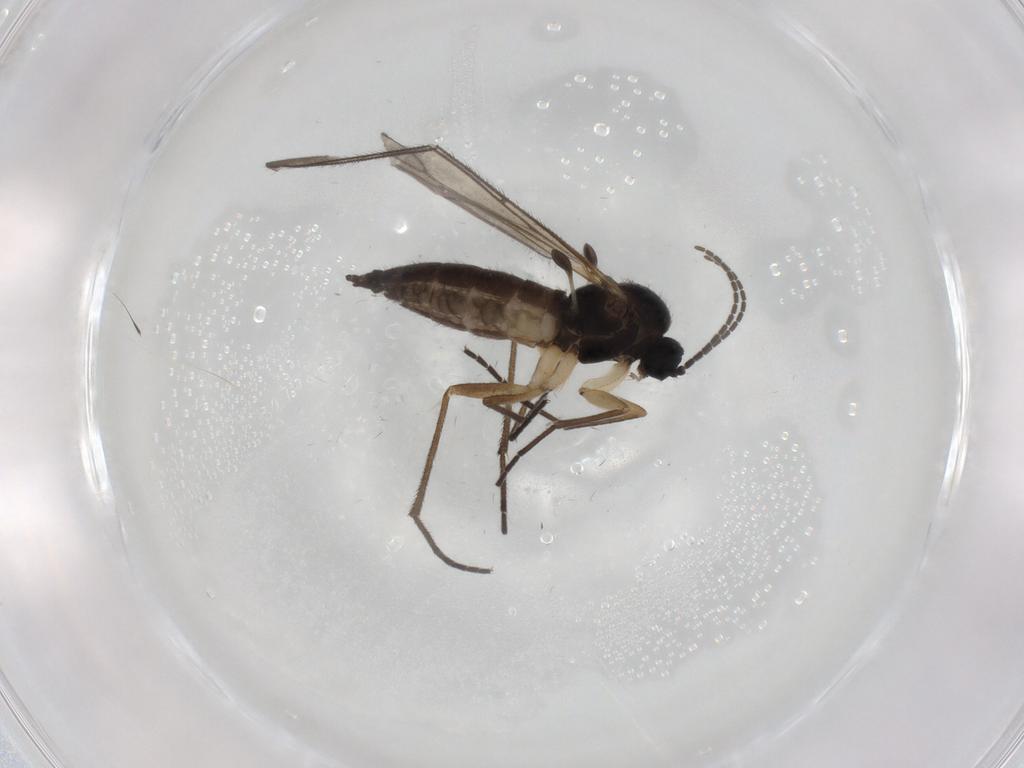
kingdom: Animalia
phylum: Arthropoda
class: Insecta
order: Diptera
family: Sciaridae
